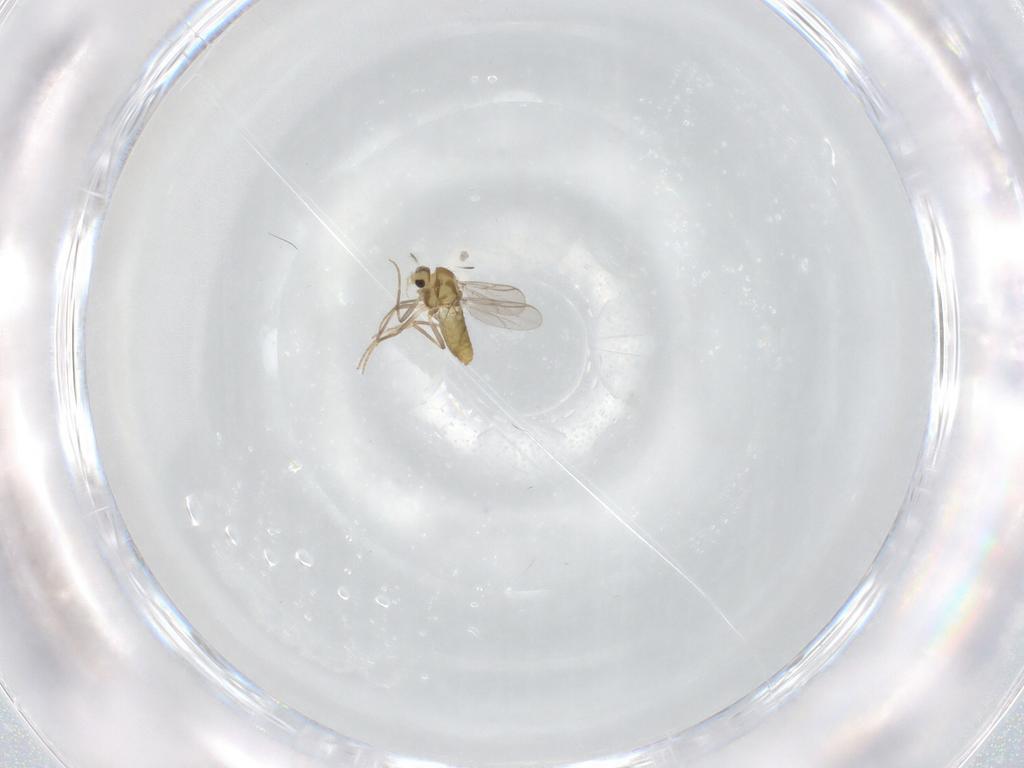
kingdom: Animalia
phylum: Arthropoda
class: Insecta
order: Diptera
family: Chironomidae
